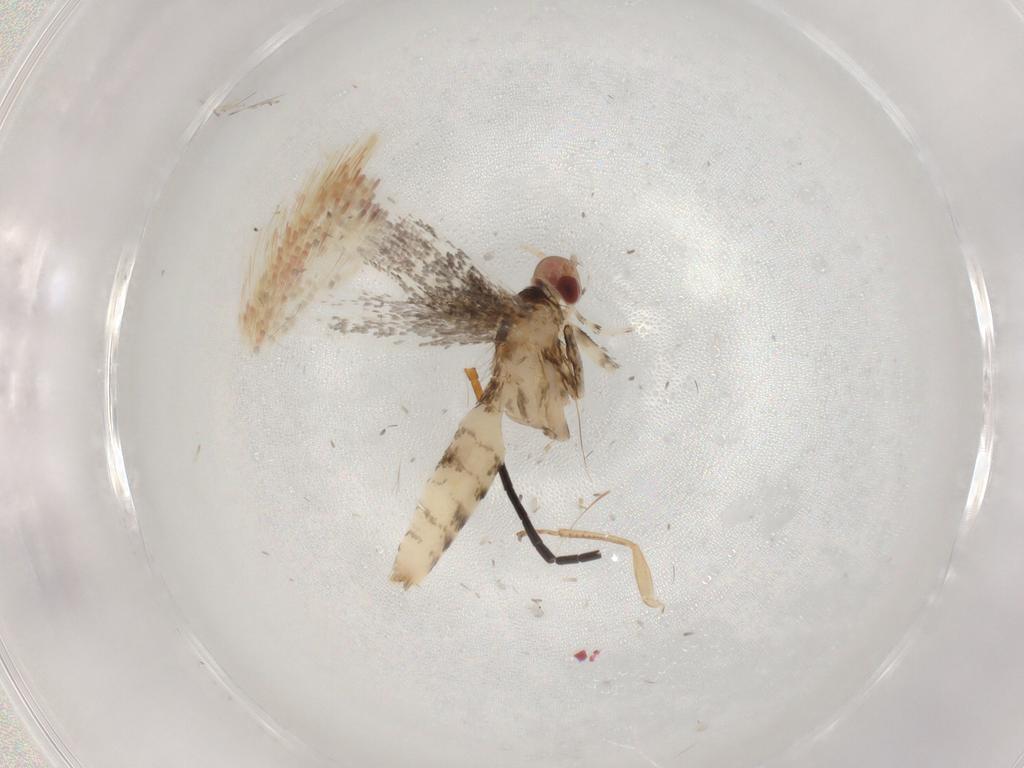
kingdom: Animalia
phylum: Arthropoda
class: Insecta
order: Lepidoptera
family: Gracillariidae
